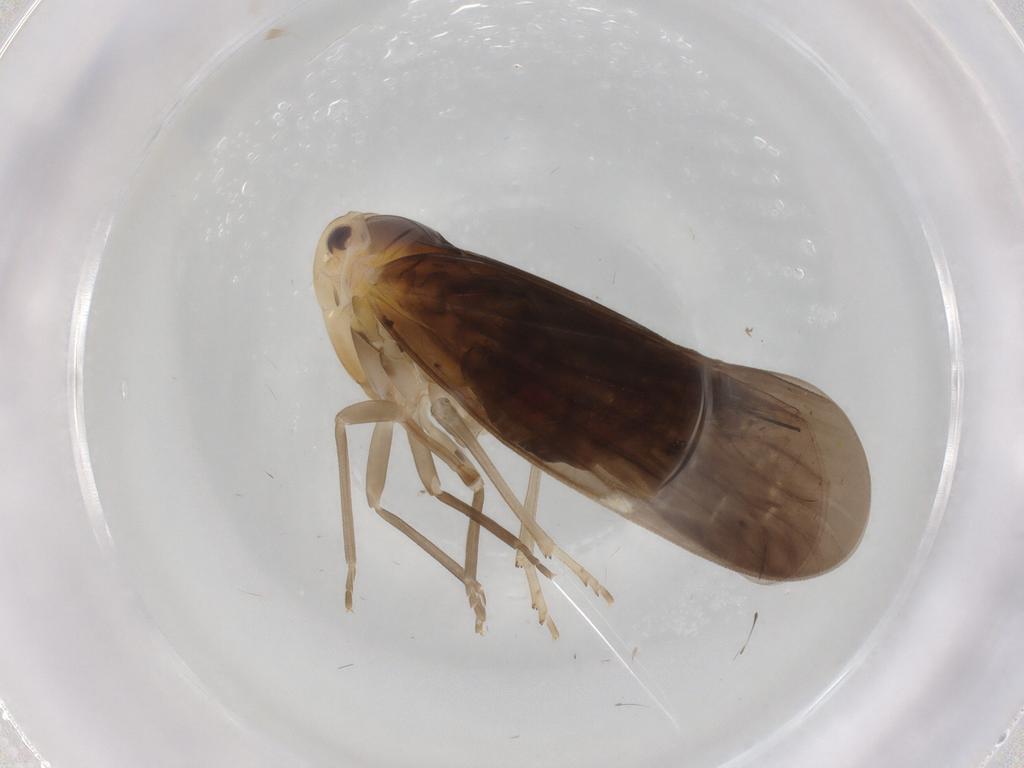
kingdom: Animalia
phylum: Arthropoda
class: Insecta
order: Hemiptera
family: Derbidae
